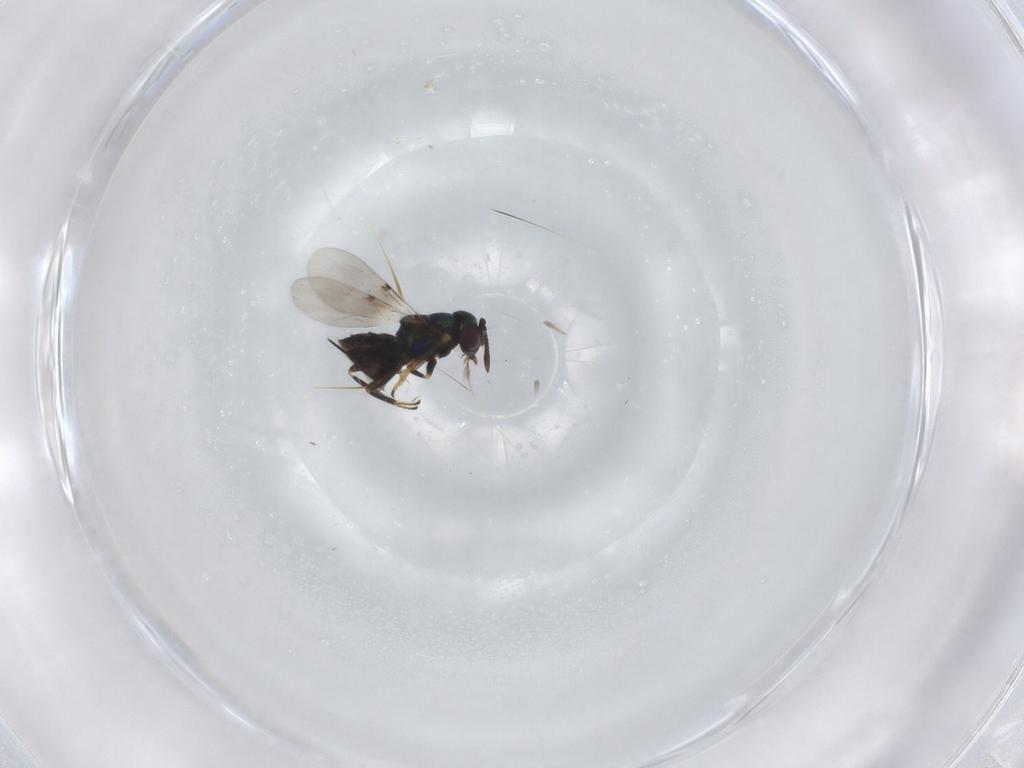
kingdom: Animalia
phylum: Arthropoda
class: Insecta
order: Hymenoptera
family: Encyrtidae
